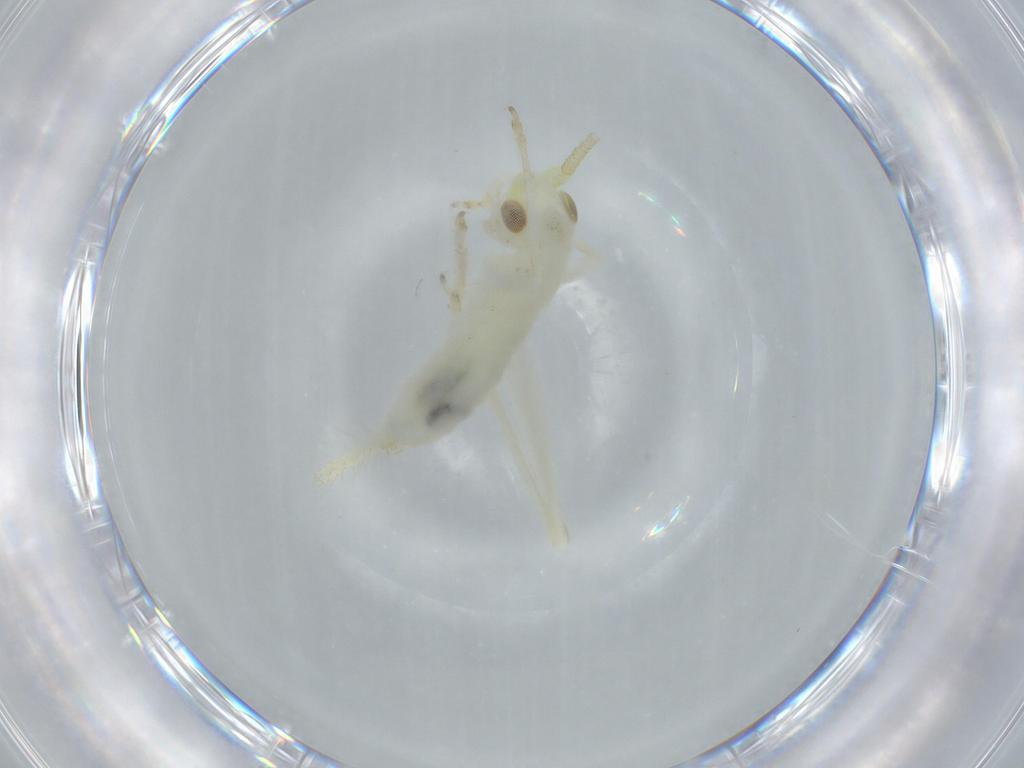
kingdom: Animalia
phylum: Arthropoda
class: Insecta
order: Orthoptera
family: Trigonidiidae
